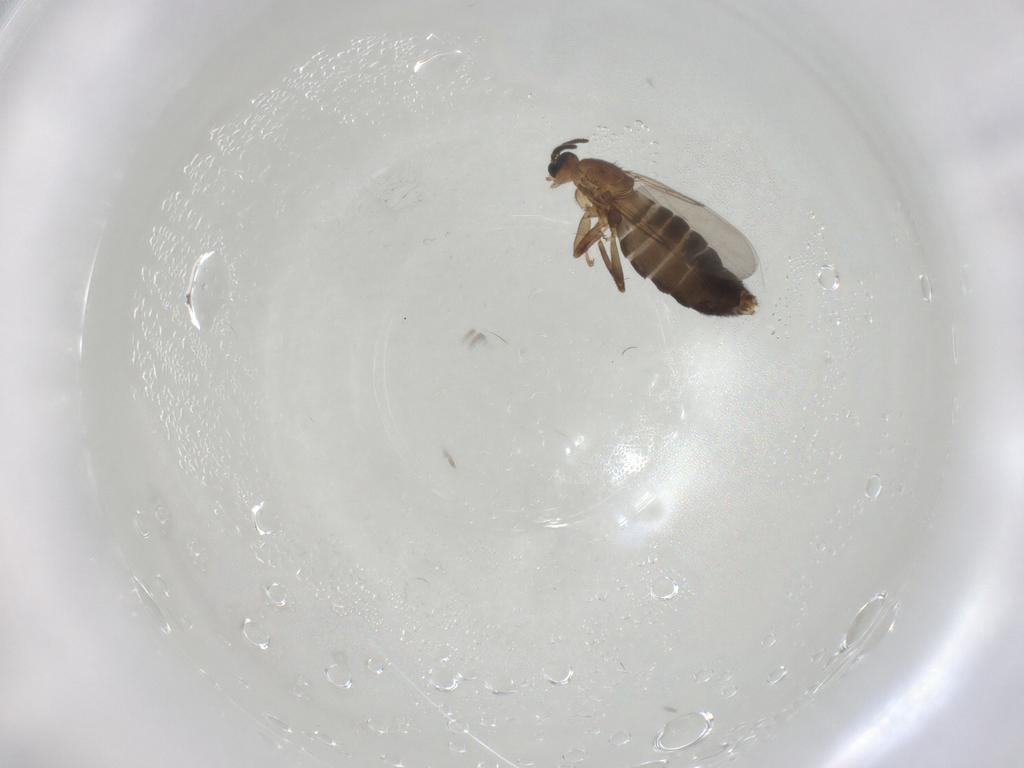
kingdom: Animalia
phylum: Arthropoda
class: Insecta
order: Diptera
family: Scatopsidae
